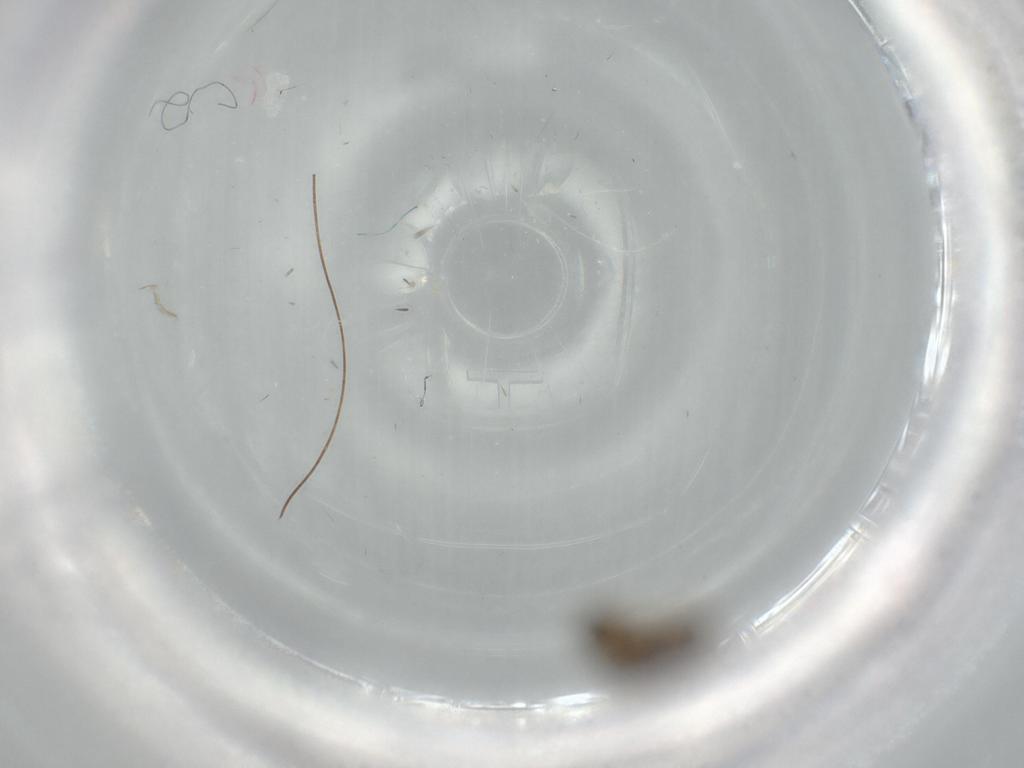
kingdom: Animalia
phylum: Arthropoda
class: Insecta
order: Diptera
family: Chironomidae
